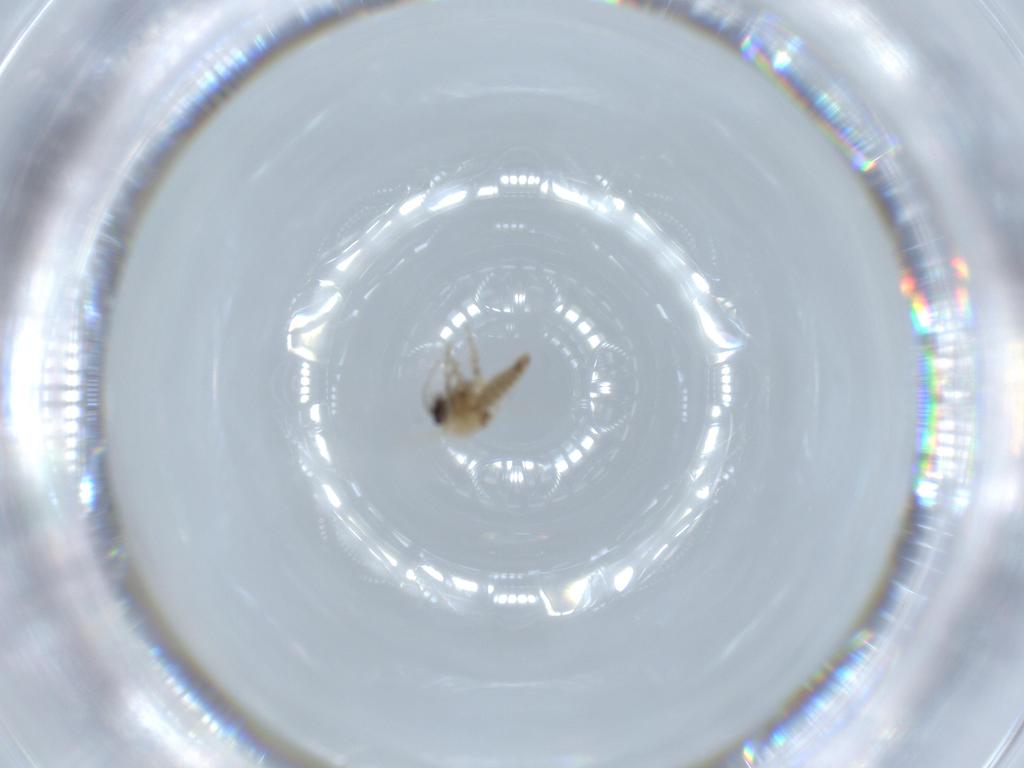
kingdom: Animalia
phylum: Arthropoda
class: Insecta
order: Diptera
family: Ceratopogonidae
